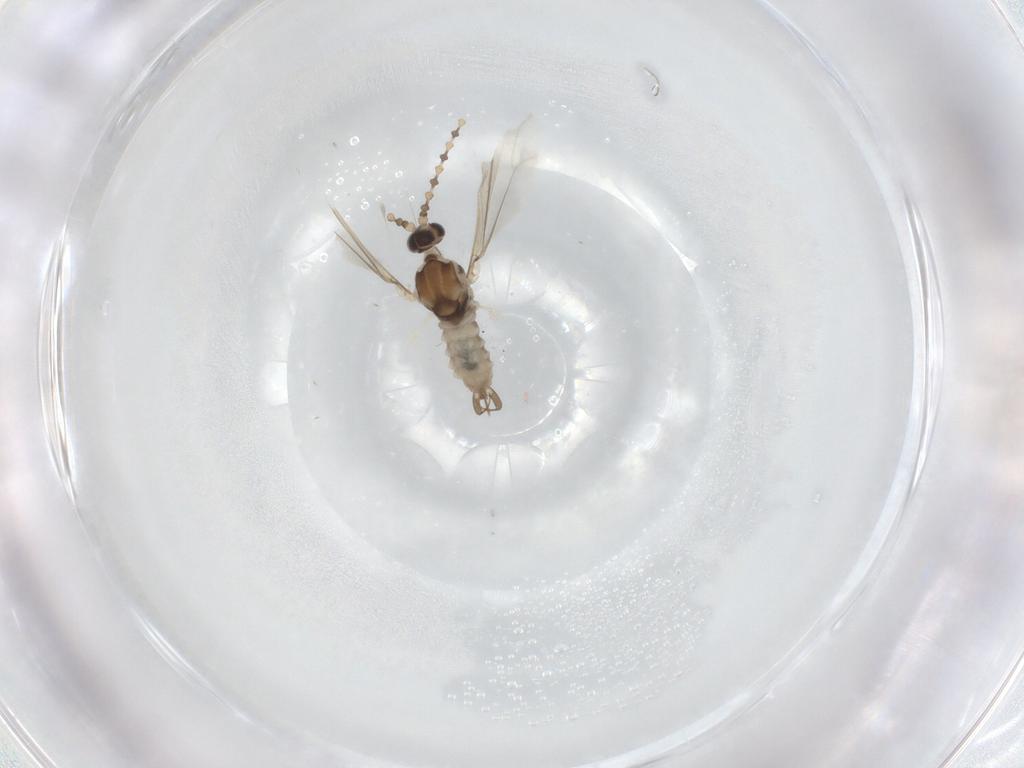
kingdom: Animalia
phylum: Arthropoda
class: Insecta
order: Diptera
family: Cecidomyiidae
